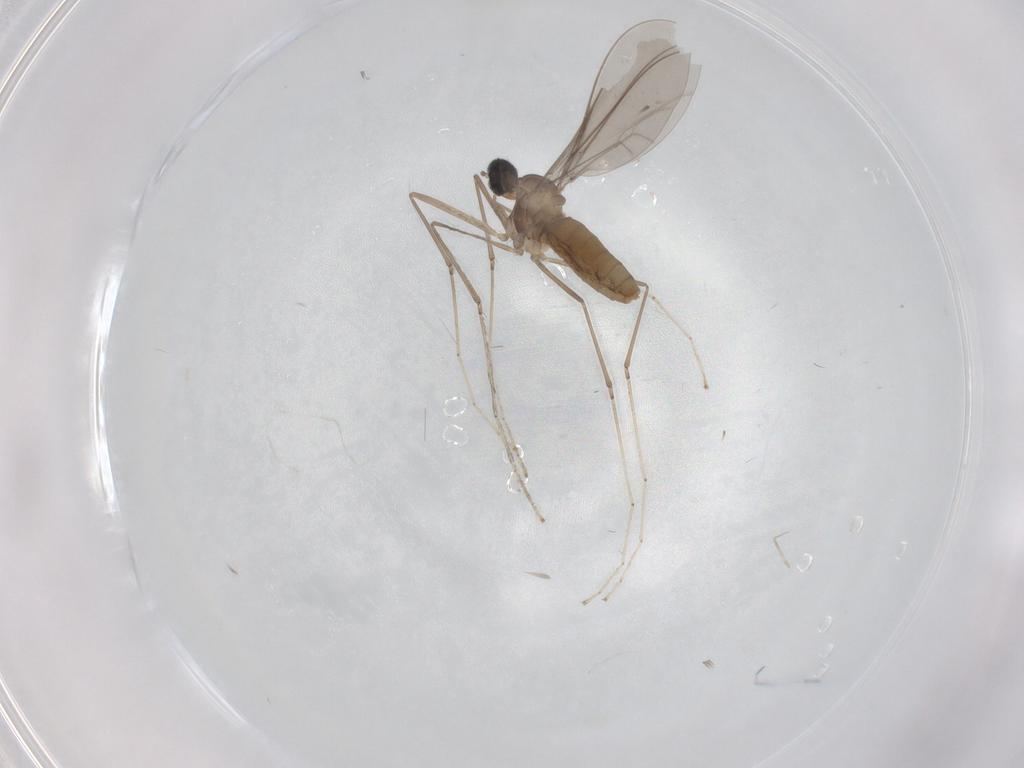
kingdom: Animalia
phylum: Arthropoda
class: Insecta
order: Diptera
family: Cecidomyiidae
